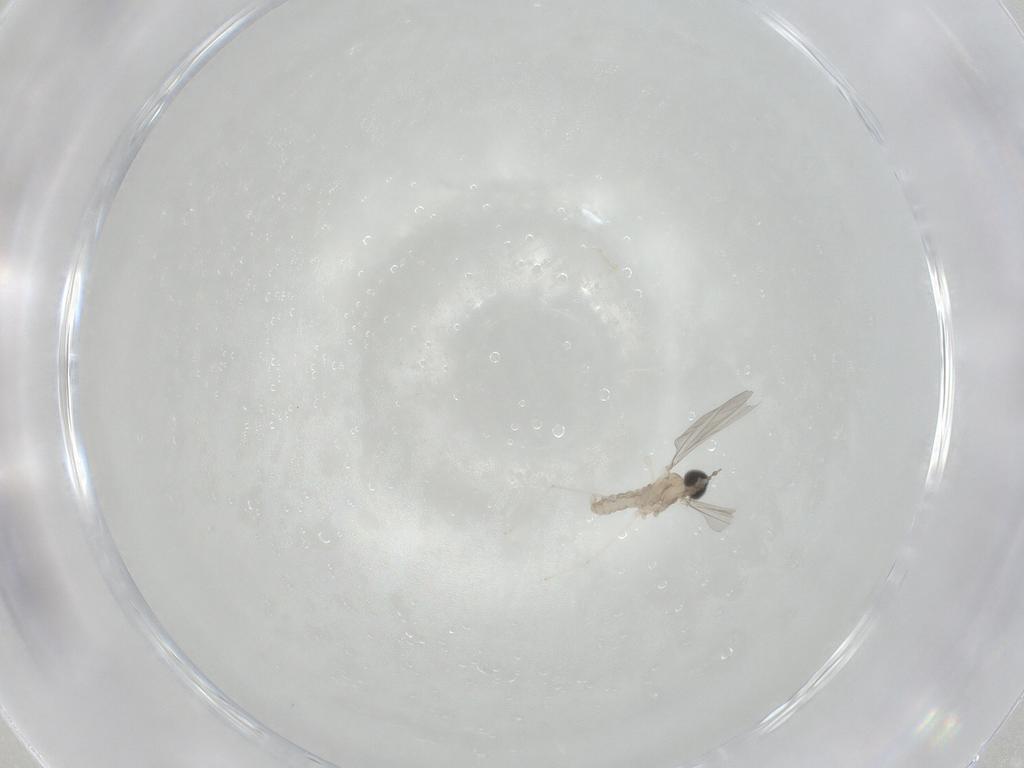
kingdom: Animalia
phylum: Arthropoda
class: Insecta
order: Diptera
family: Cecidomyiidae
